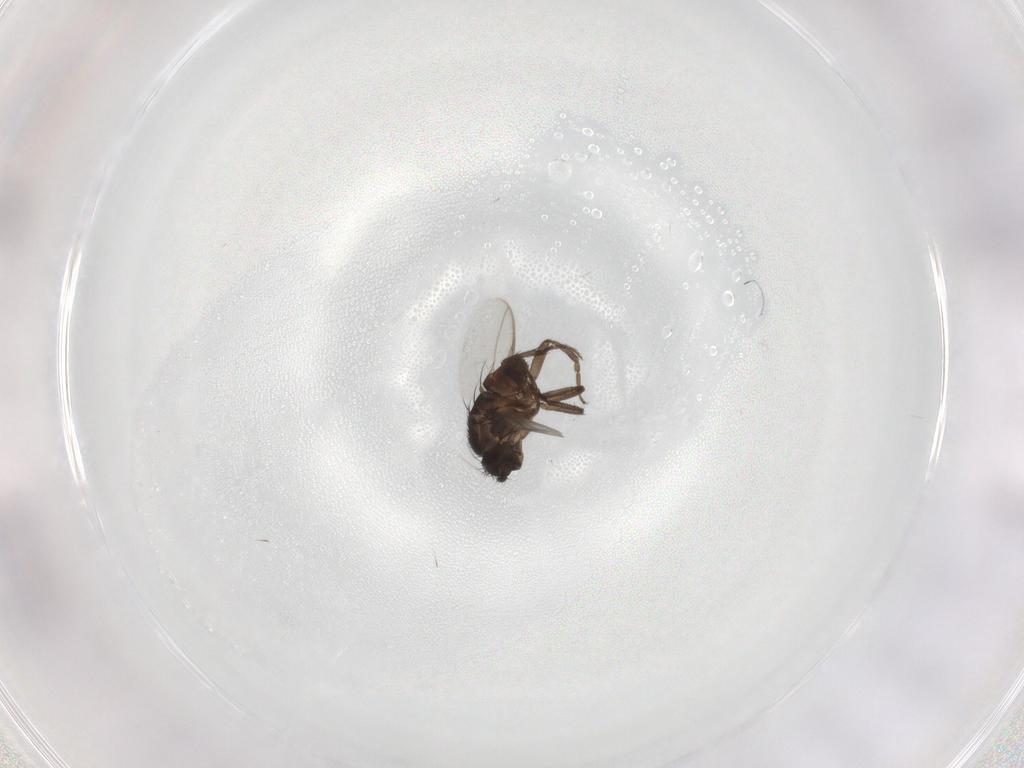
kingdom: Animalia
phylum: Arthropoda
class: Insecta
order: Diptera
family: Sphaeroceridae
